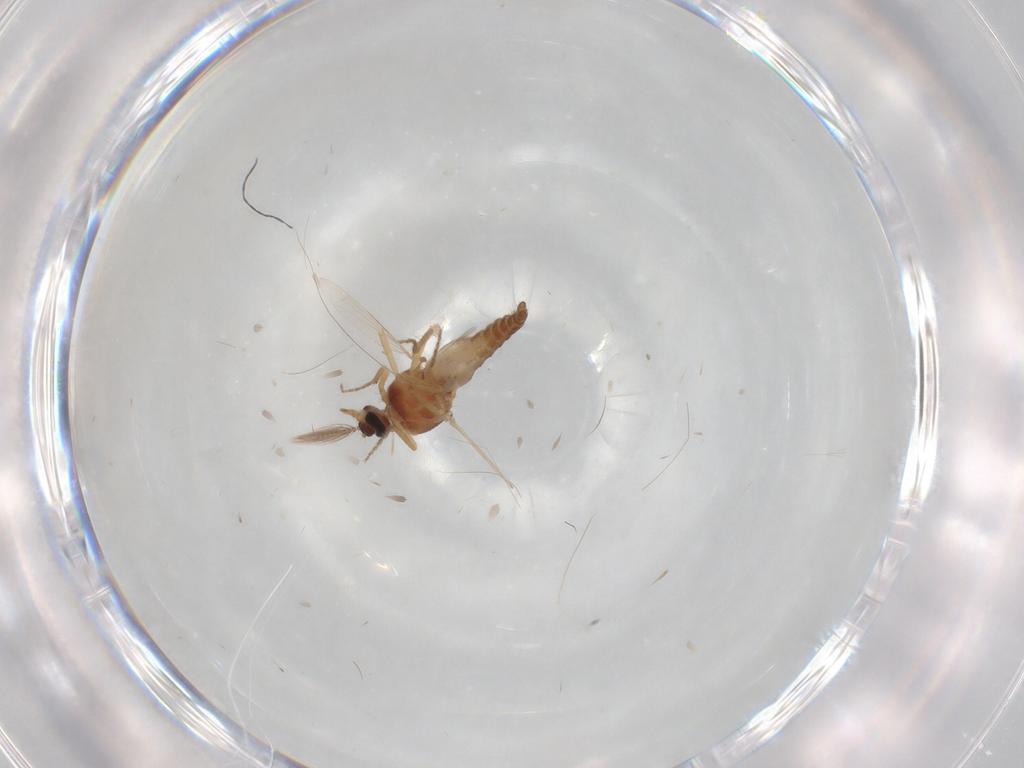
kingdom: Animalia
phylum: Arthropoda
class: Insecta
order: Diptera
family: Ceratopogonidae
